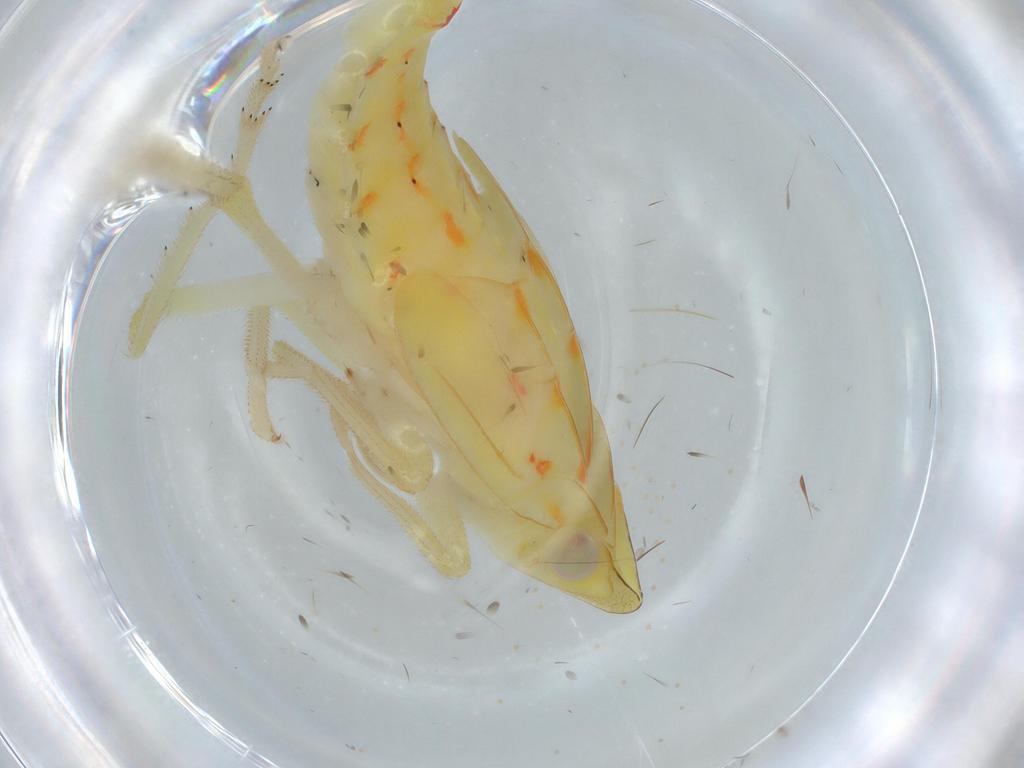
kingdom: Animalia
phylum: Arthropoda
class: Insecta
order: Hemiptera
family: Tropiduchidae
